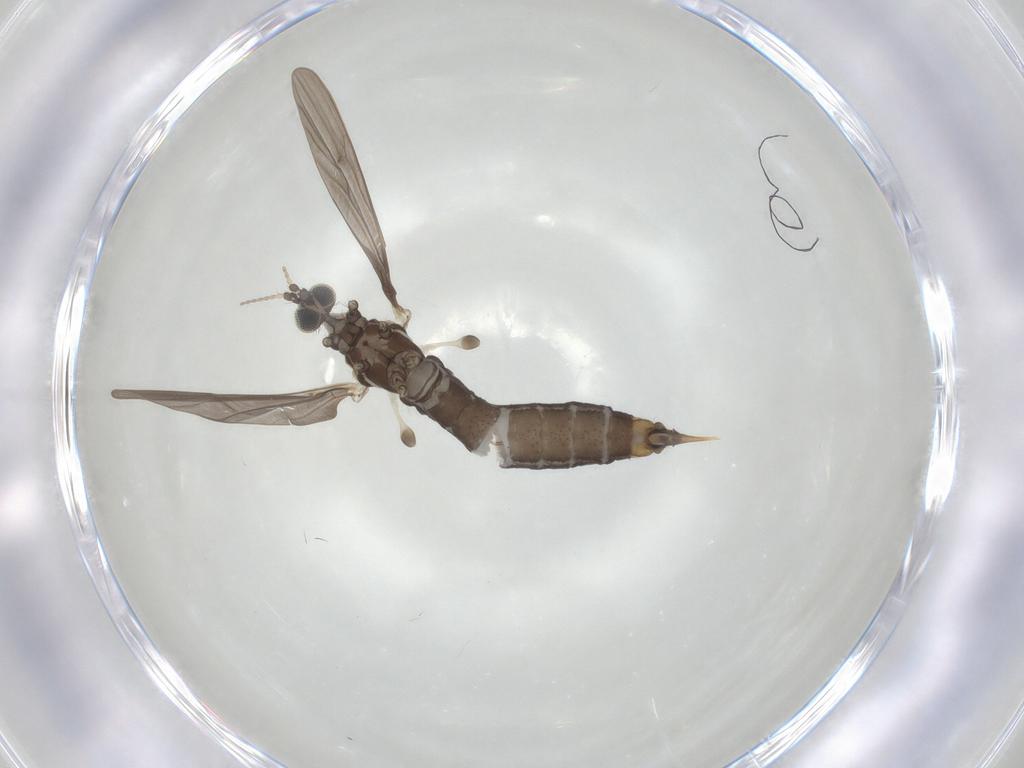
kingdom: Animalia
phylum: Arthropoda
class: Insecta
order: Diptera
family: Limoniidae
